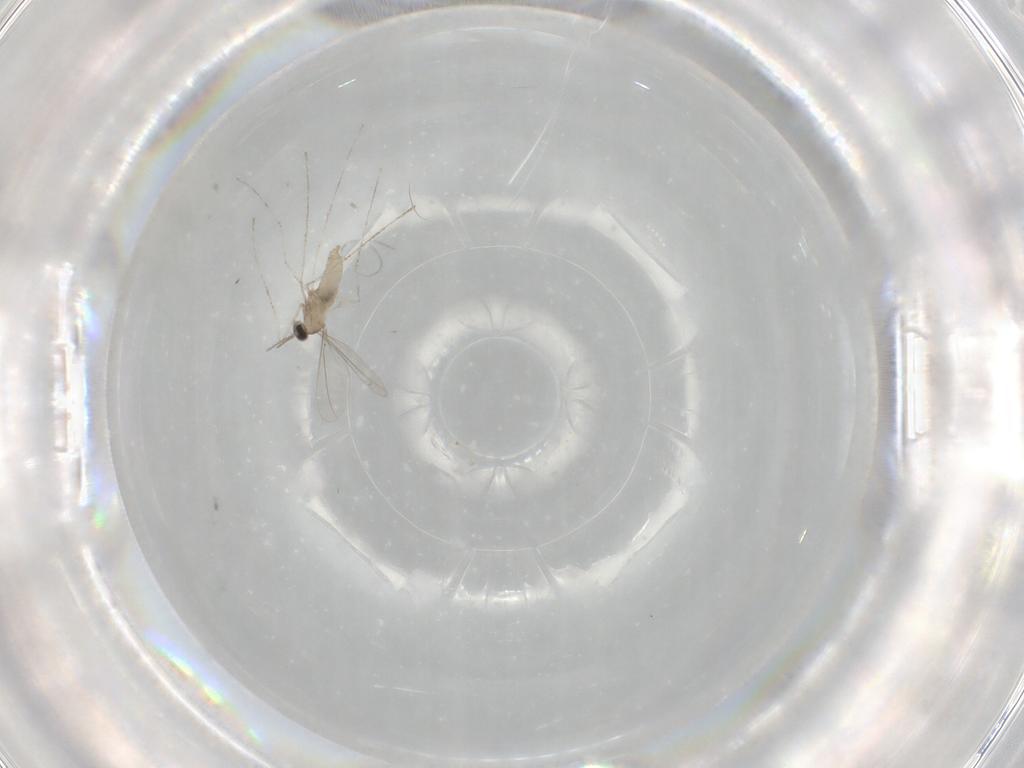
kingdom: Animalia
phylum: Arthropoda
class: Insecta
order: Diptera
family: Cecidomyiidae
